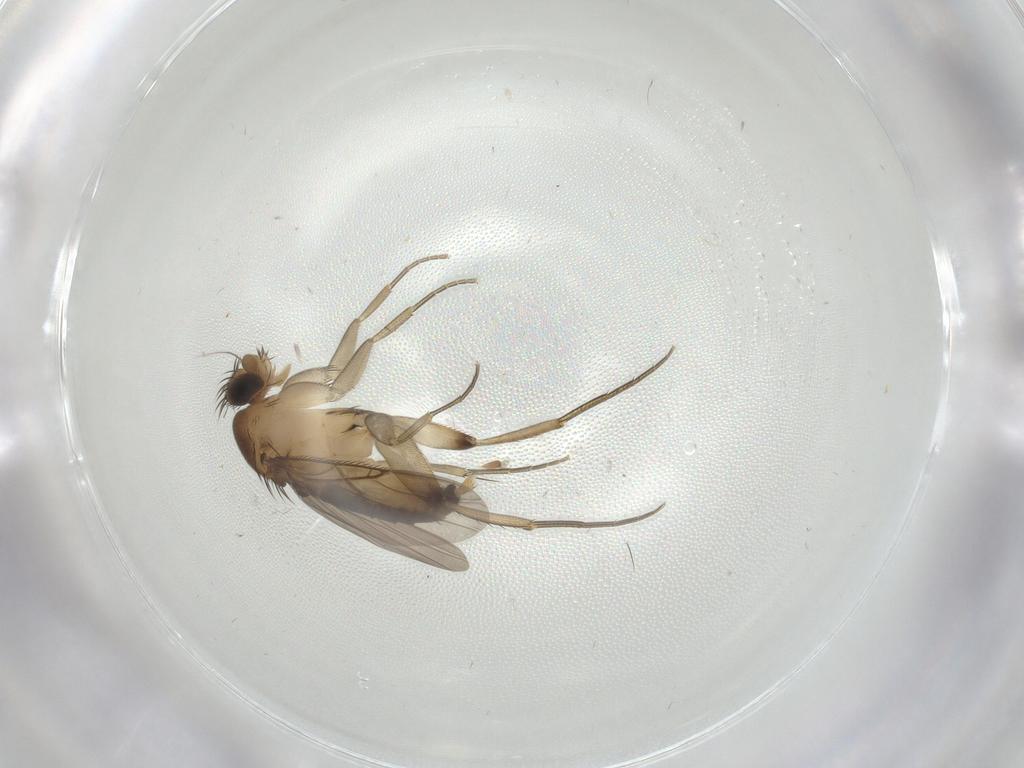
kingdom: Animalia
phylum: Arthropoda
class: Insecta
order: Diptera
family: Phoridae
